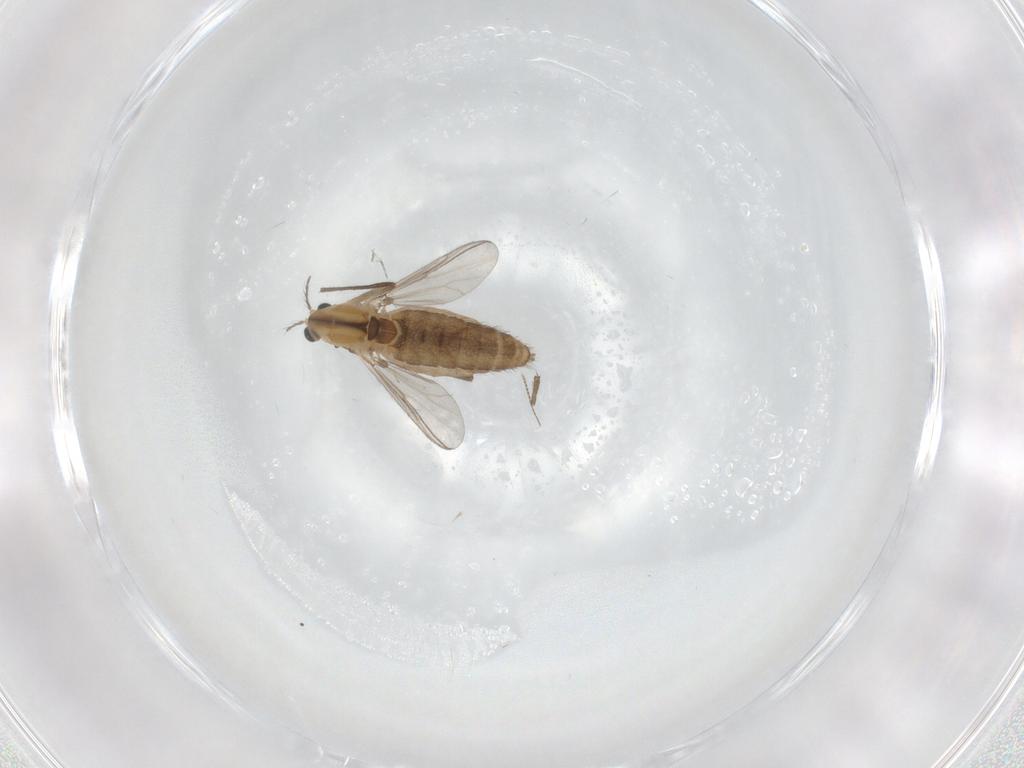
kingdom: Animalia
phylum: Arthropoda
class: Insecta
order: Diptera
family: Chironomidae
